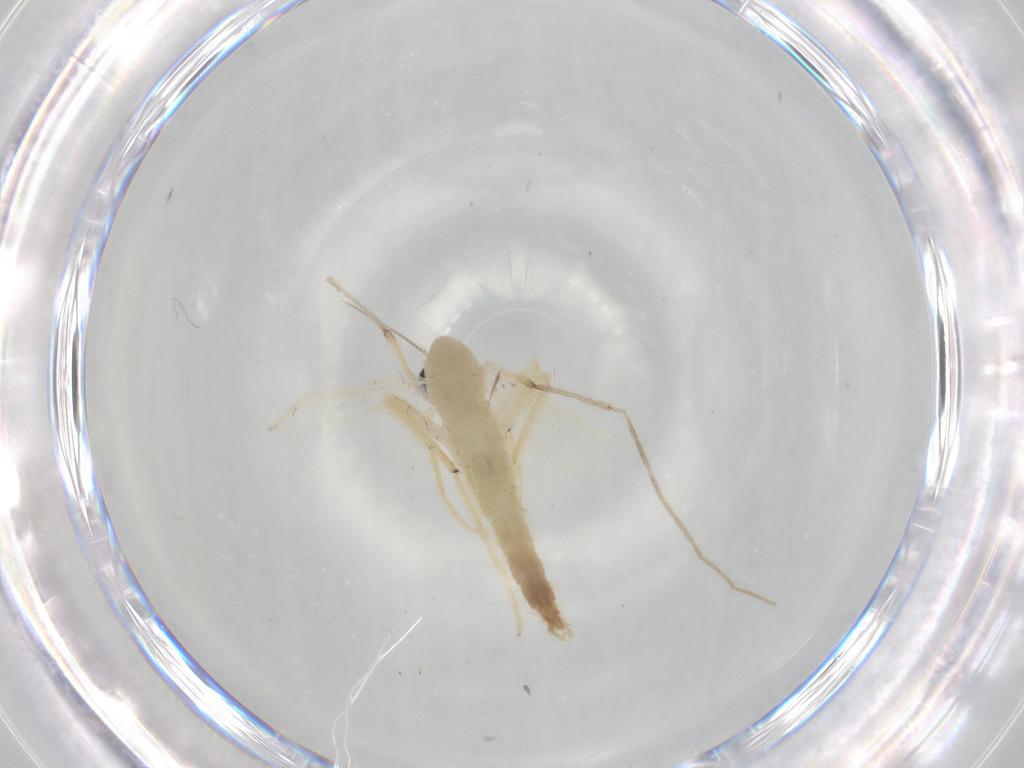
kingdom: Animalia
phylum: Arthropoda
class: Insecta
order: Diptera
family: Chironomidae
